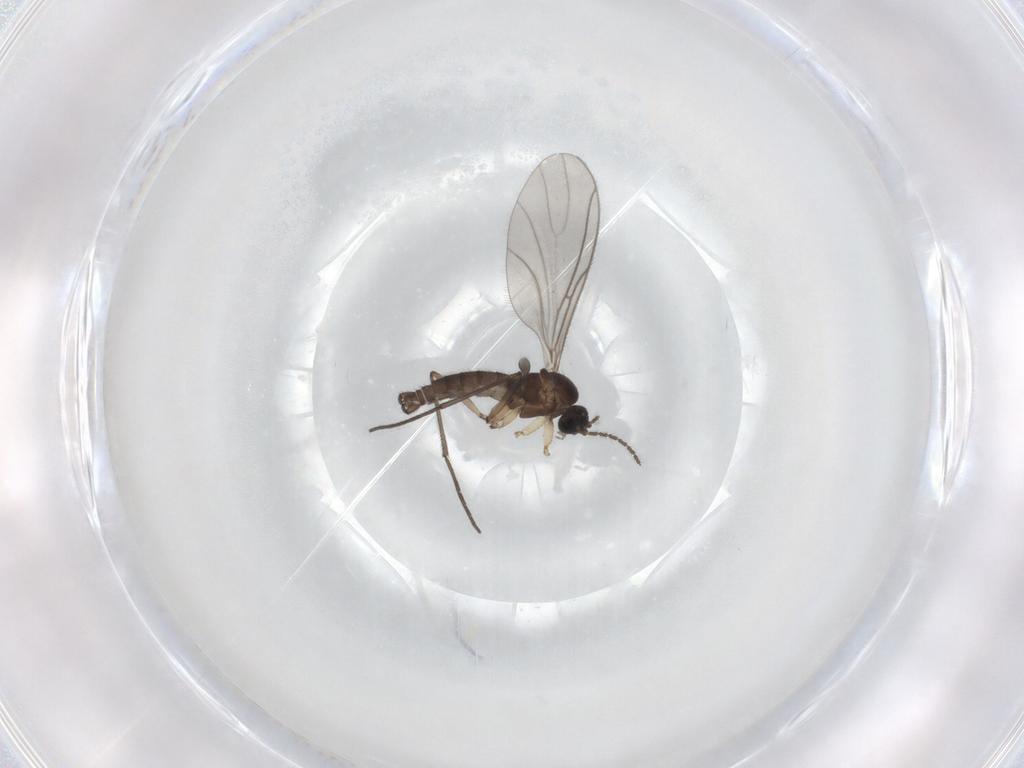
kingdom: Animalia
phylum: Arthropoda
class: Insecta
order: Diptera
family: Sciaridae
